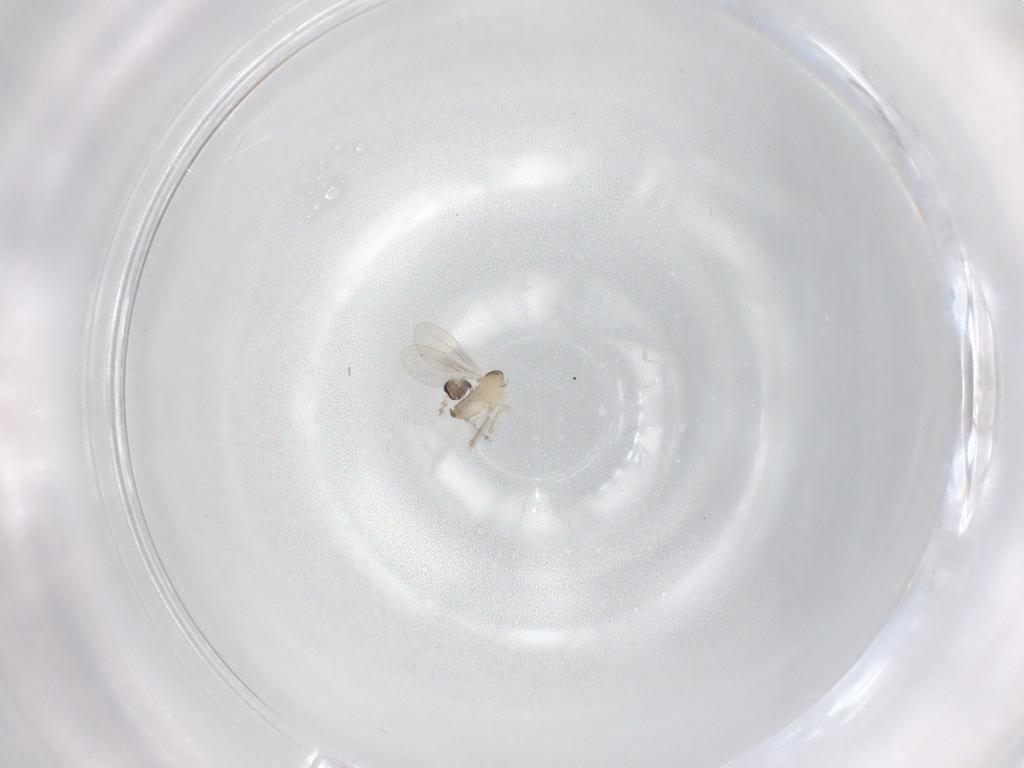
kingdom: Animalia
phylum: Arthropoda
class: Insecta
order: Diptera
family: Cecidomyiidae
